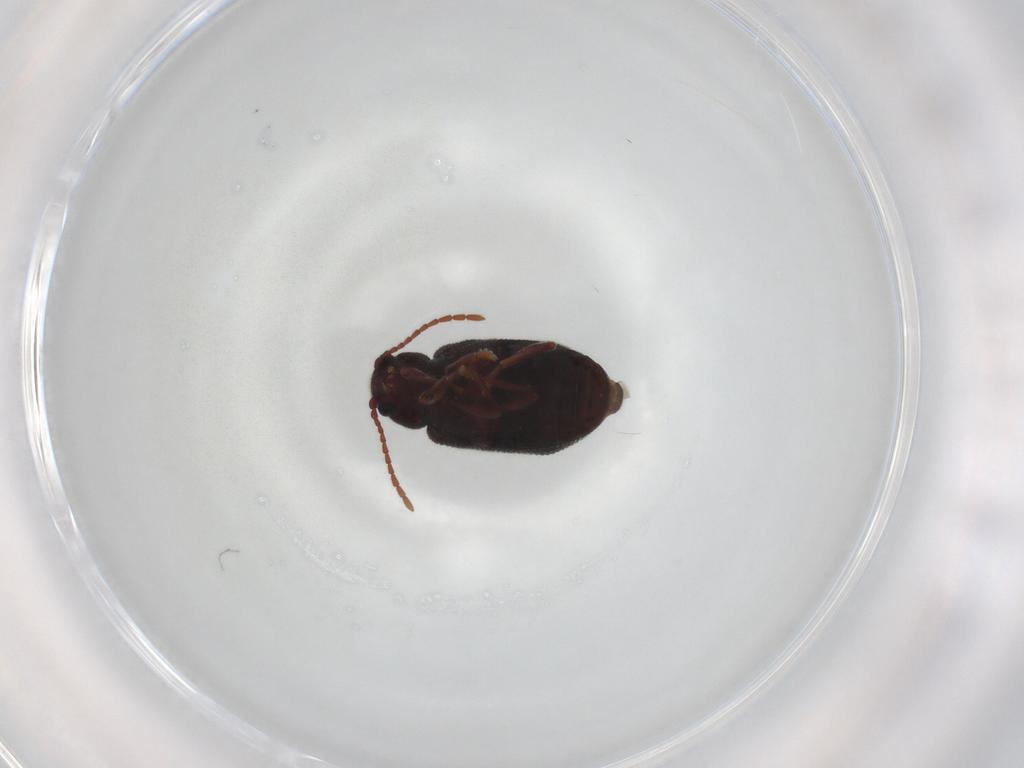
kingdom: Animalia
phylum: Arthropoda
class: Insecta
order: Coleoptera
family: Ptinidae
